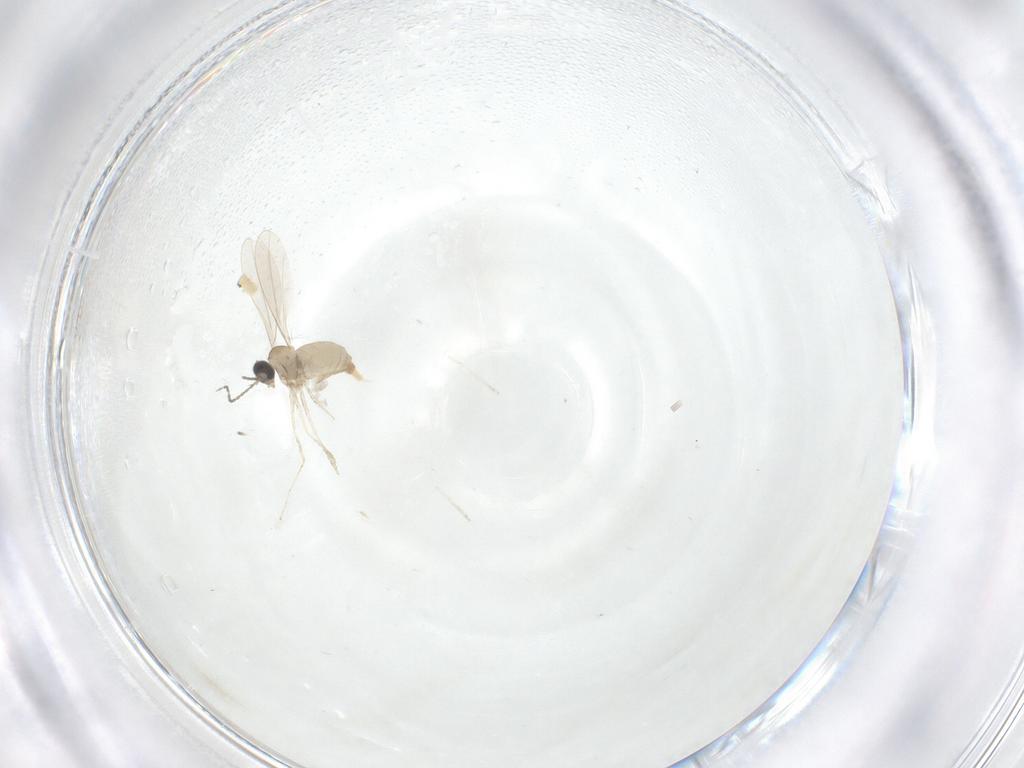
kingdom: Animalia
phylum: Arthropoda
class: Insecta
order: Diptera
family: Cecidomyiidae
